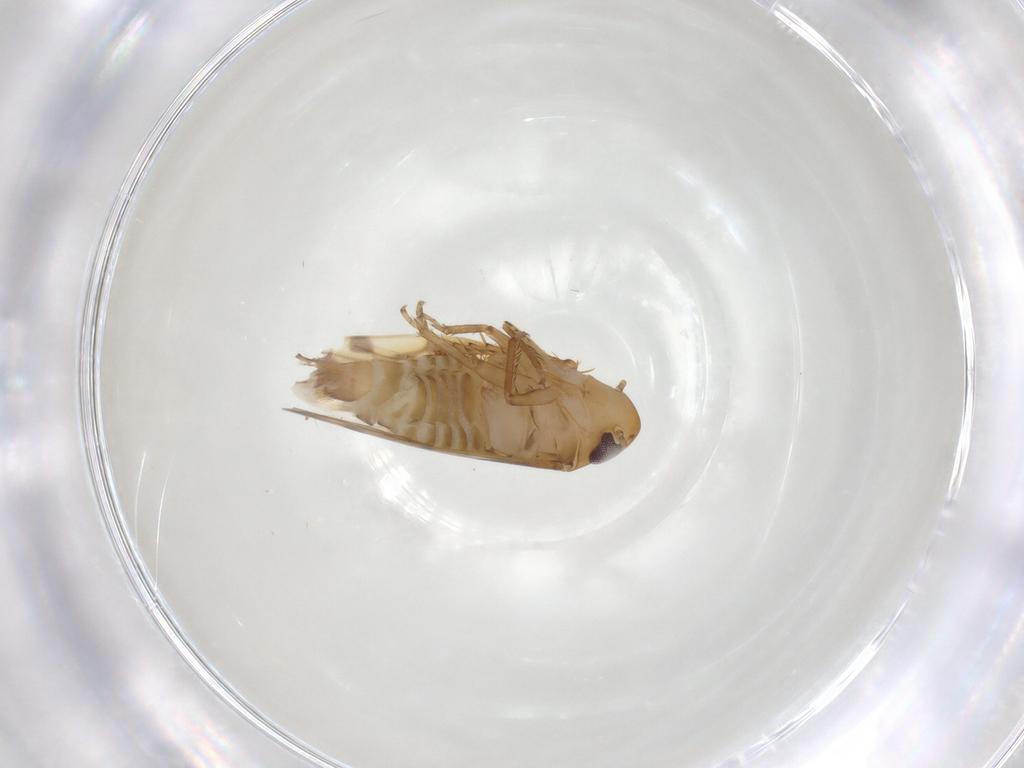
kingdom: Animalia
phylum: Arthropoda
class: Insecta
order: Hemiptera
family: Cicadellidae
